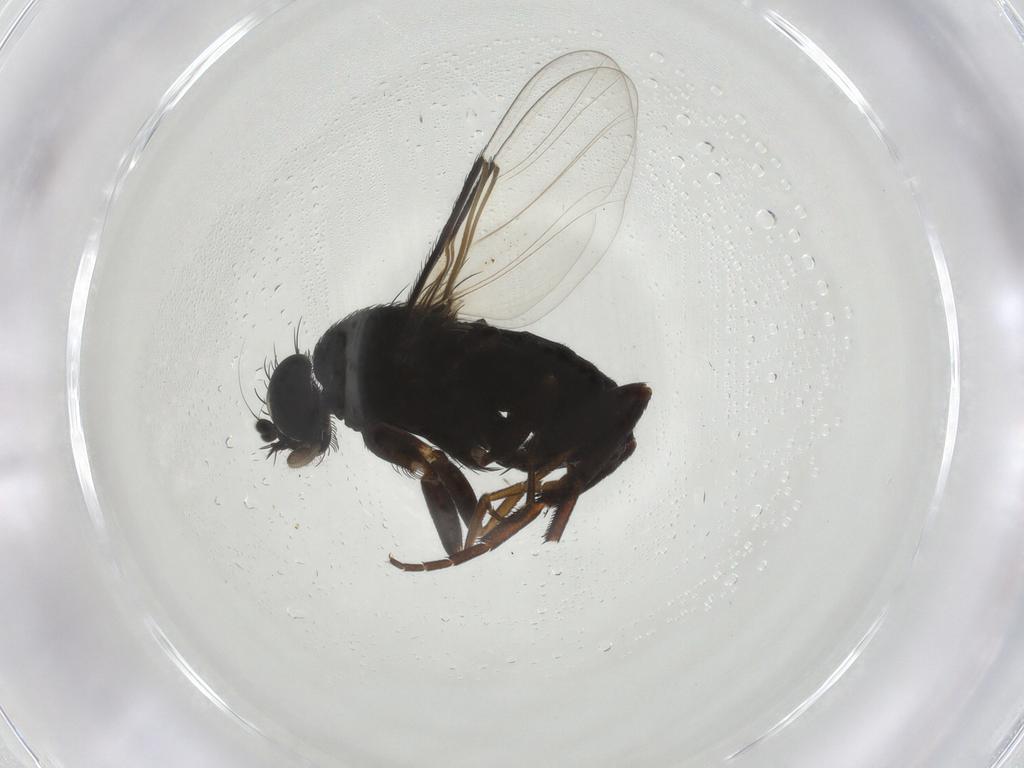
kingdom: Animalia
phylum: Arthropoda
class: Insecta
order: Diptera
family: Phoridae
